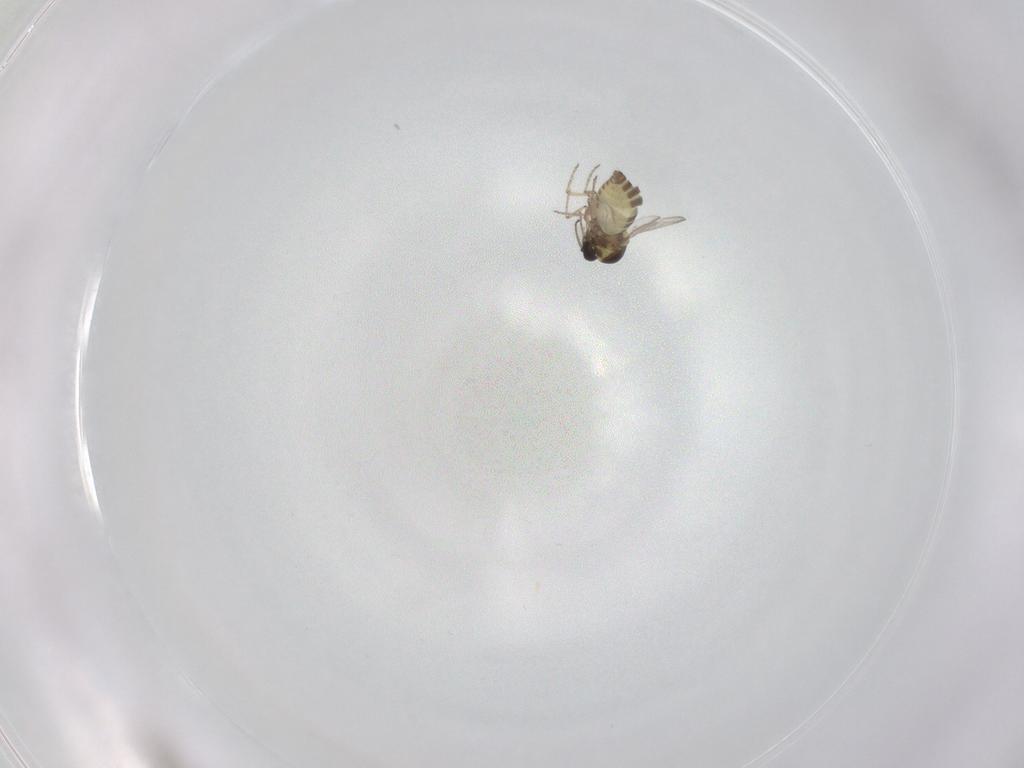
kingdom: Animalia
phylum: Arthropoda
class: Insecta
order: Diptera
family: Ceratopogonidae
